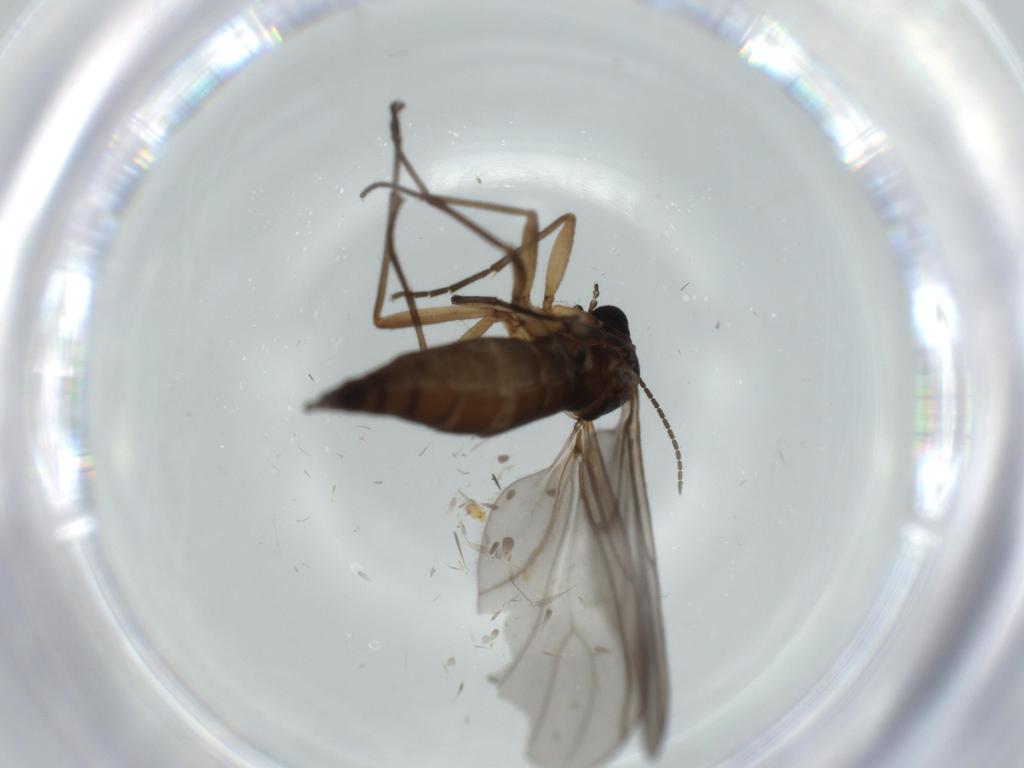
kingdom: Animalia
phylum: Arthropoda
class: Insecta
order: Diptera
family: Sciaridae
